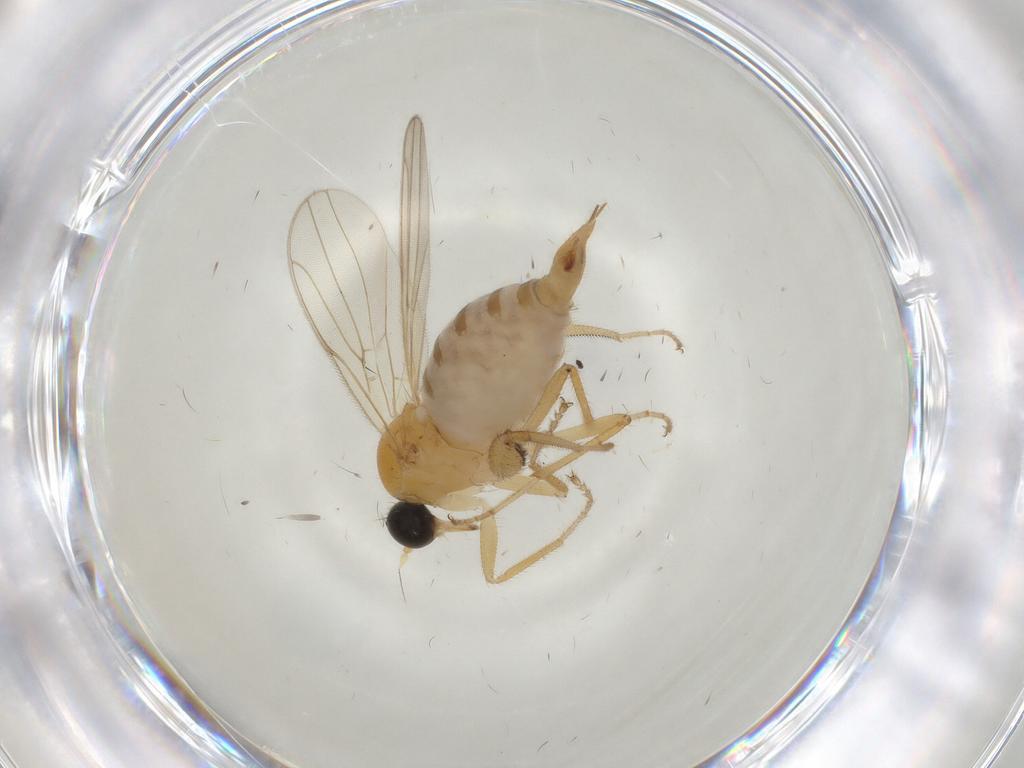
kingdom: Animalia
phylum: Arthropoda
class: Insecta
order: Diptera
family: Hybotidae
